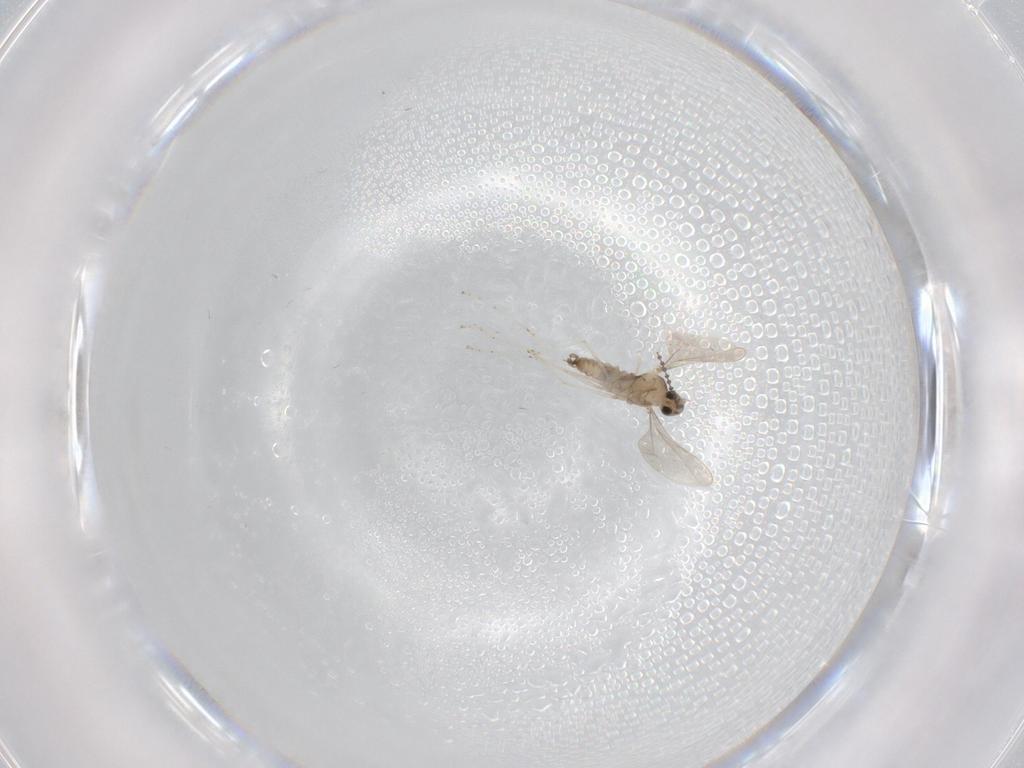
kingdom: Animalia
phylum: Arthropoda
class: Insecta
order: Diptera
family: Cecidomyiidae
